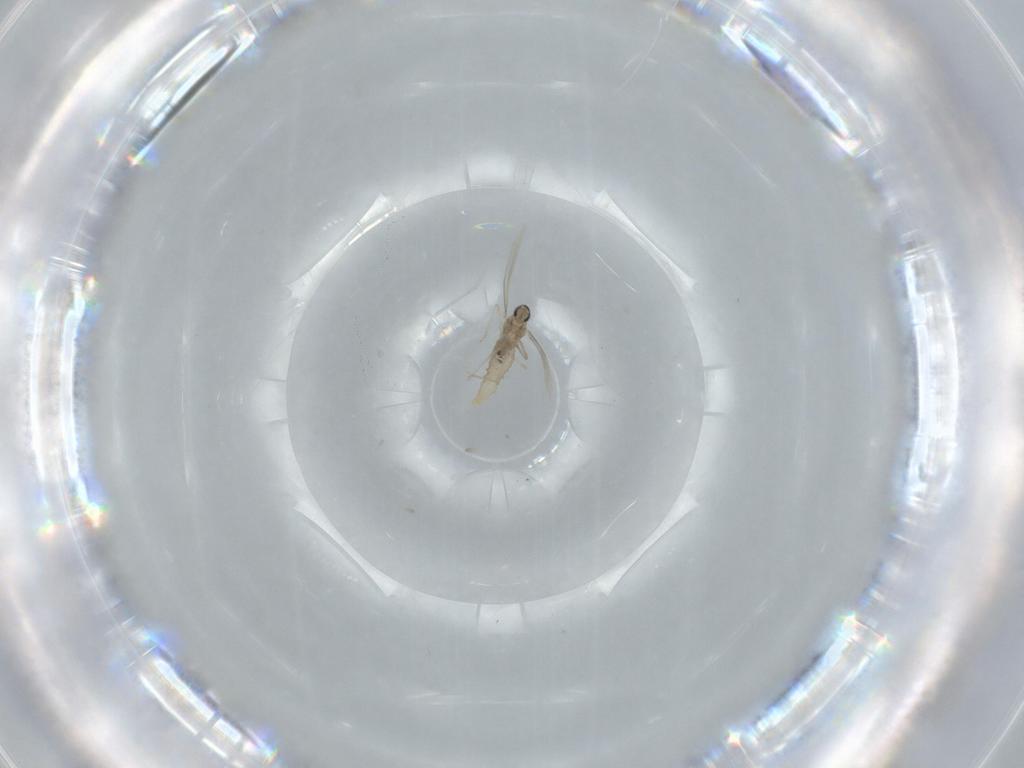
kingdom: Animalia
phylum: Arthropoda
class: Insecta
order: Diptera
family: Cecidomyiidae
